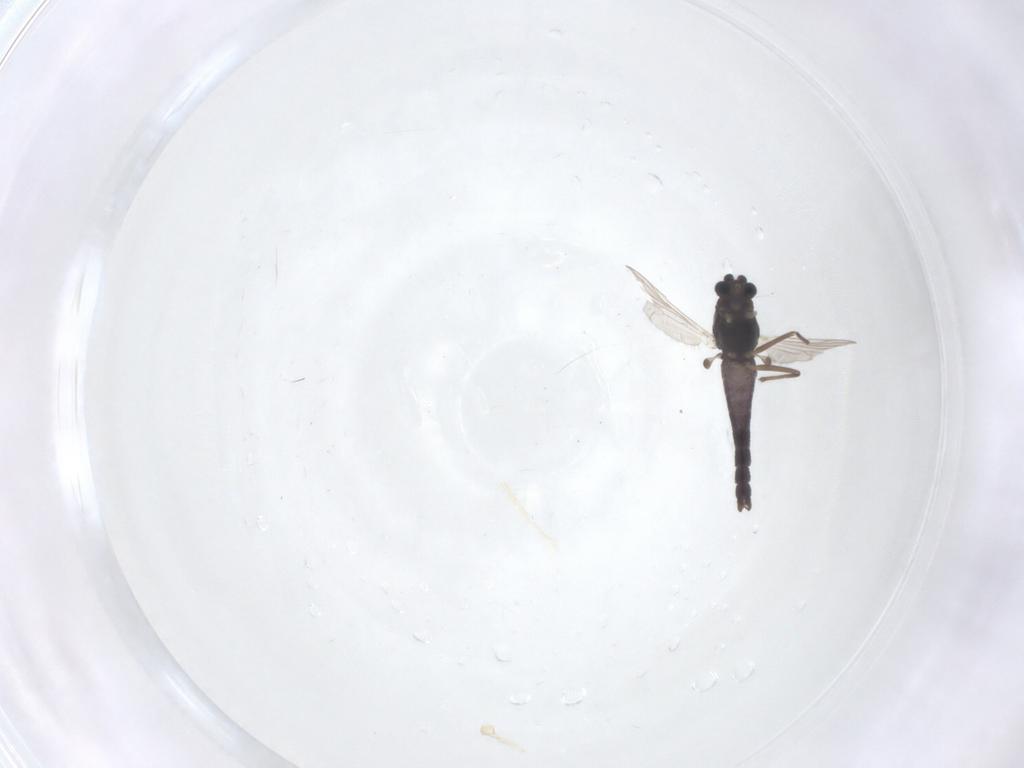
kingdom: Animalia
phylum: Arthropoda
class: Insecta
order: Diptera
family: Chironomidae
